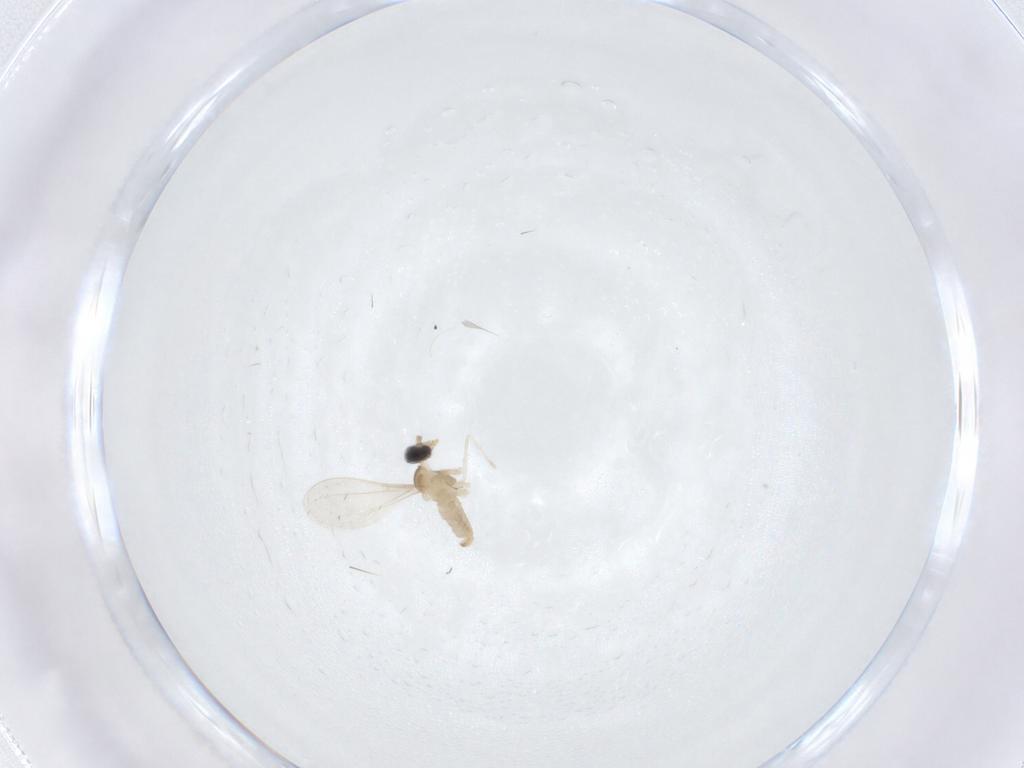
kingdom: Animalia
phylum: Arthropoda
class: Insecta
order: Diptera
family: Cecidomyiidae
